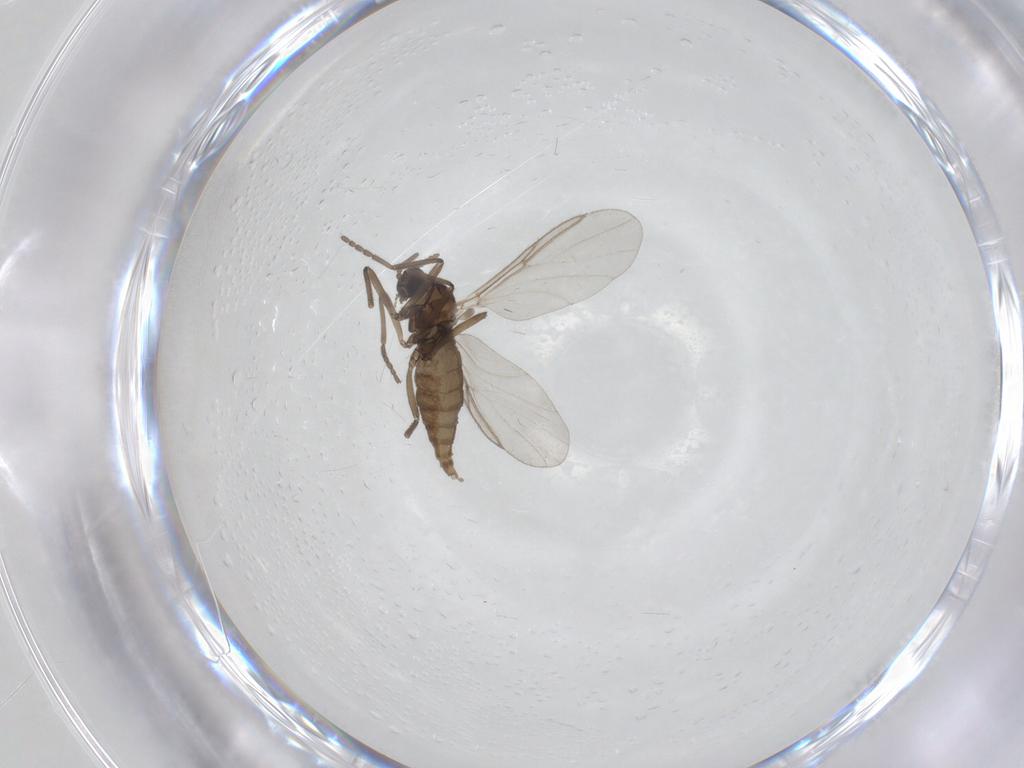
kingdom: Animalia
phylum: Arthropoda
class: Insecta
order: Diptera
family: Cecidomyiidae
